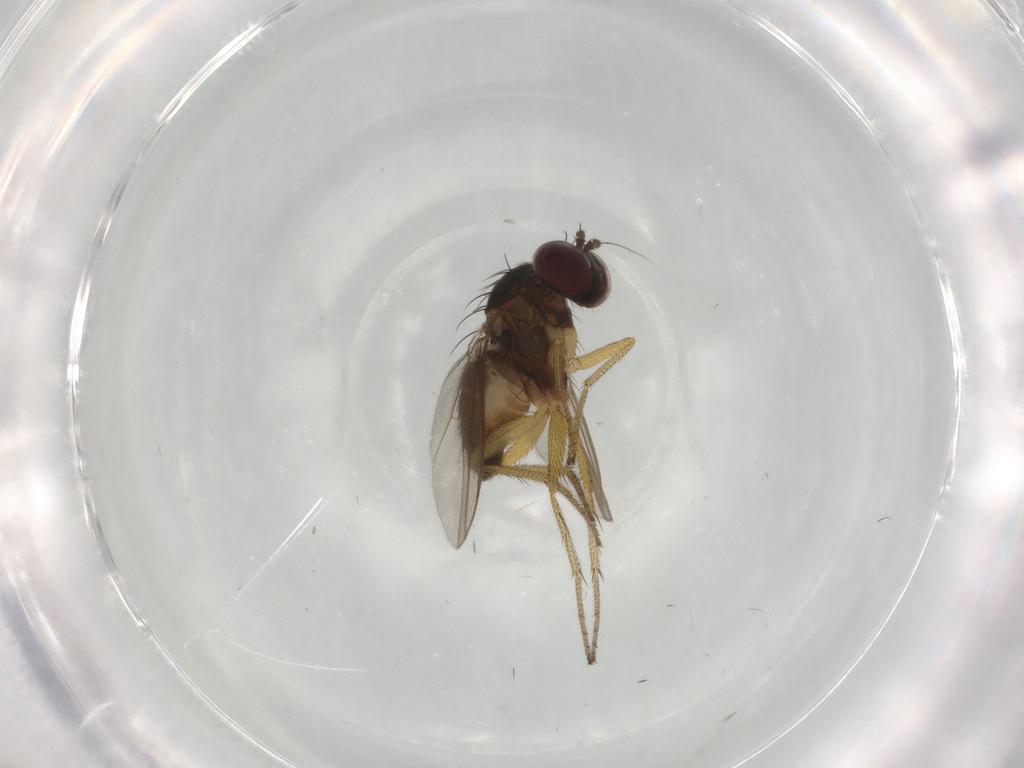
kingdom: Animalia
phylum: Arthropoda
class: Insecta
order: Diptera
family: Dolichopodidae
